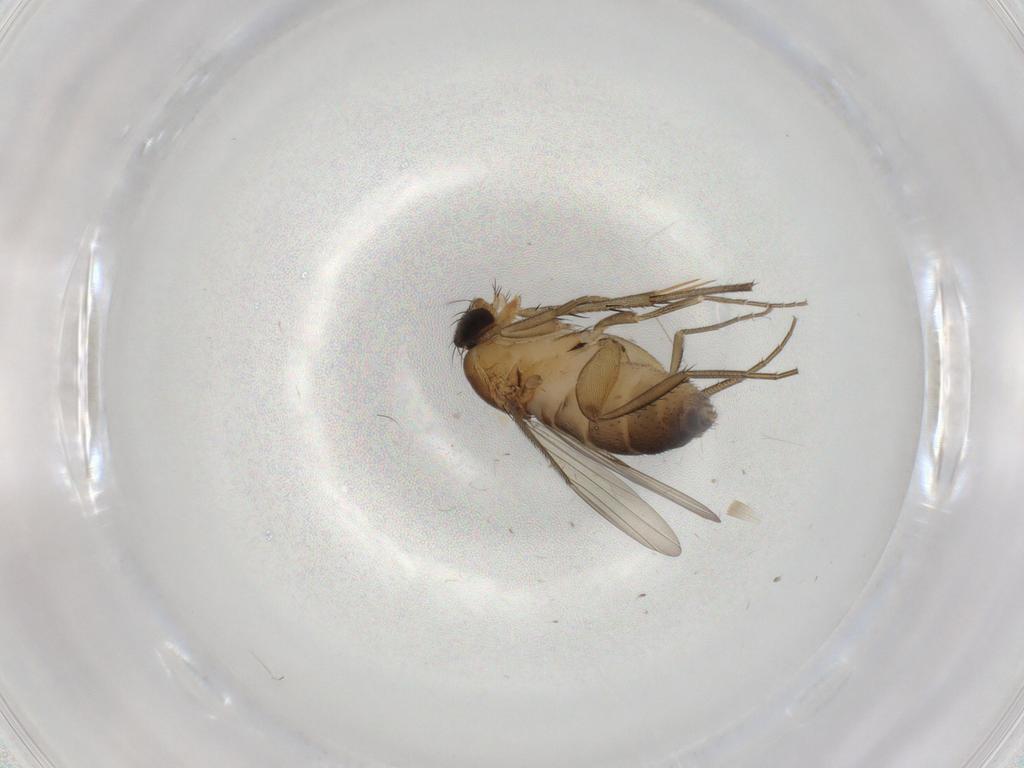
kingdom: Animalia
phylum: Arthropoda
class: Insecta
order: Diptera
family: Phoridae
